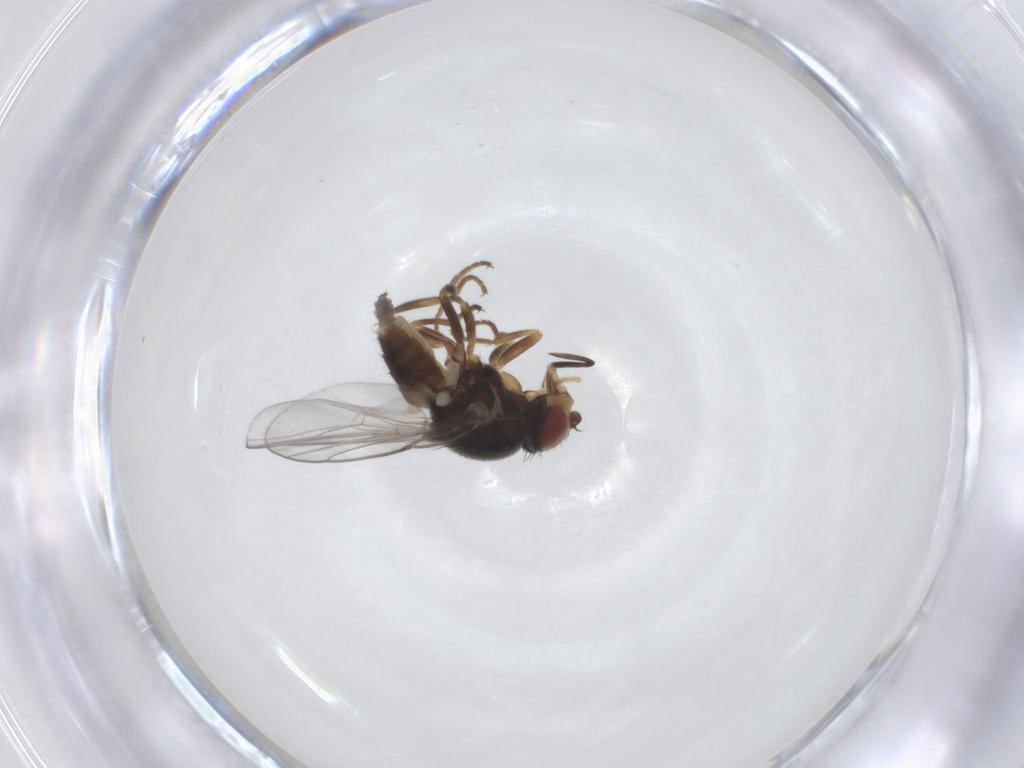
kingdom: Animalia
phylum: Arthropoda
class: Insecta
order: Diptera
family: Chloropidae
